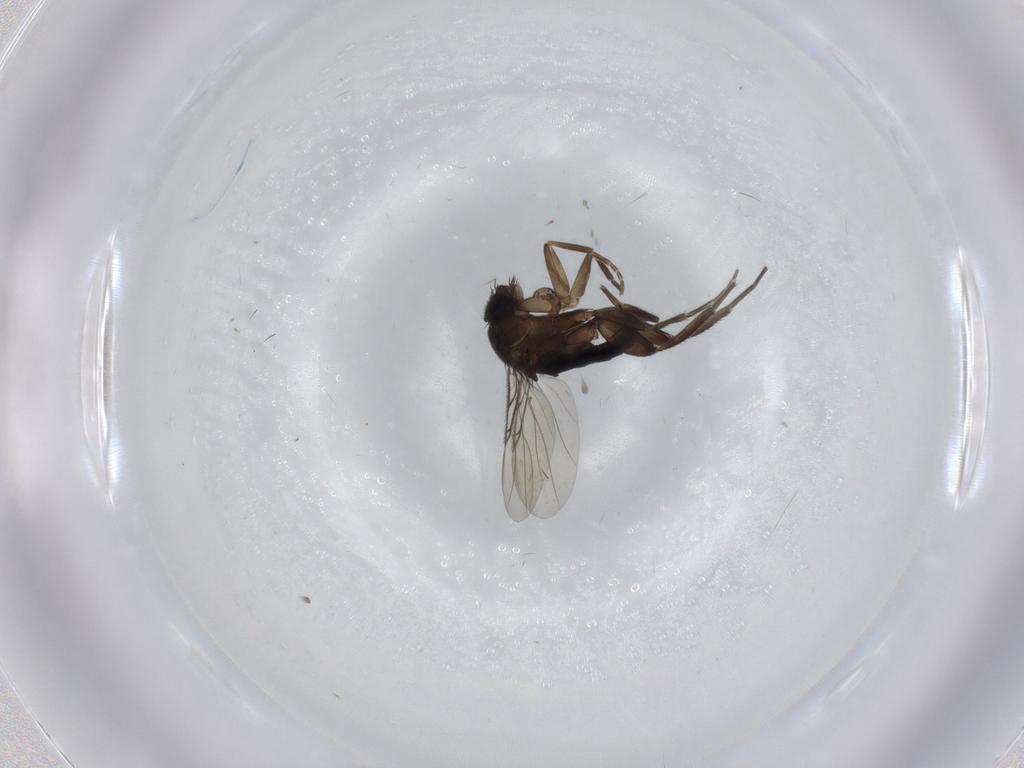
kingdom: Animalia
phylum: Arthropoda
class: Insecta
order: Diptera
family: Phoridae
